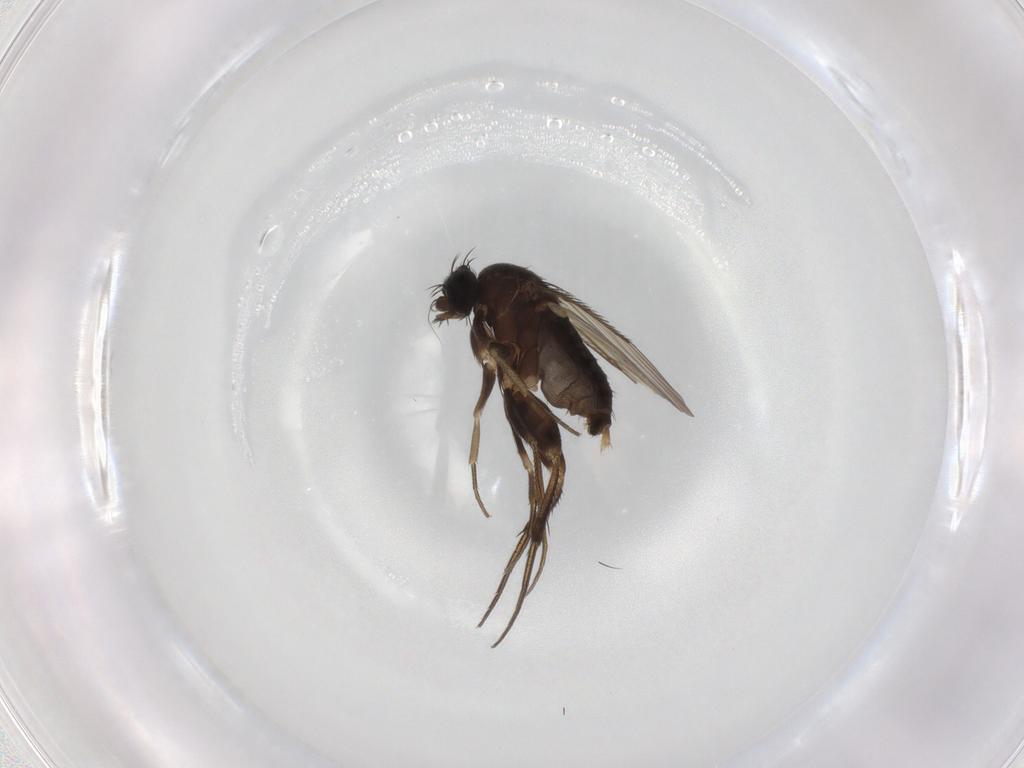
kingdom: Animalia
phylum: Arthropoda
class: Insecta
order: Diptera
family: Phoridae
